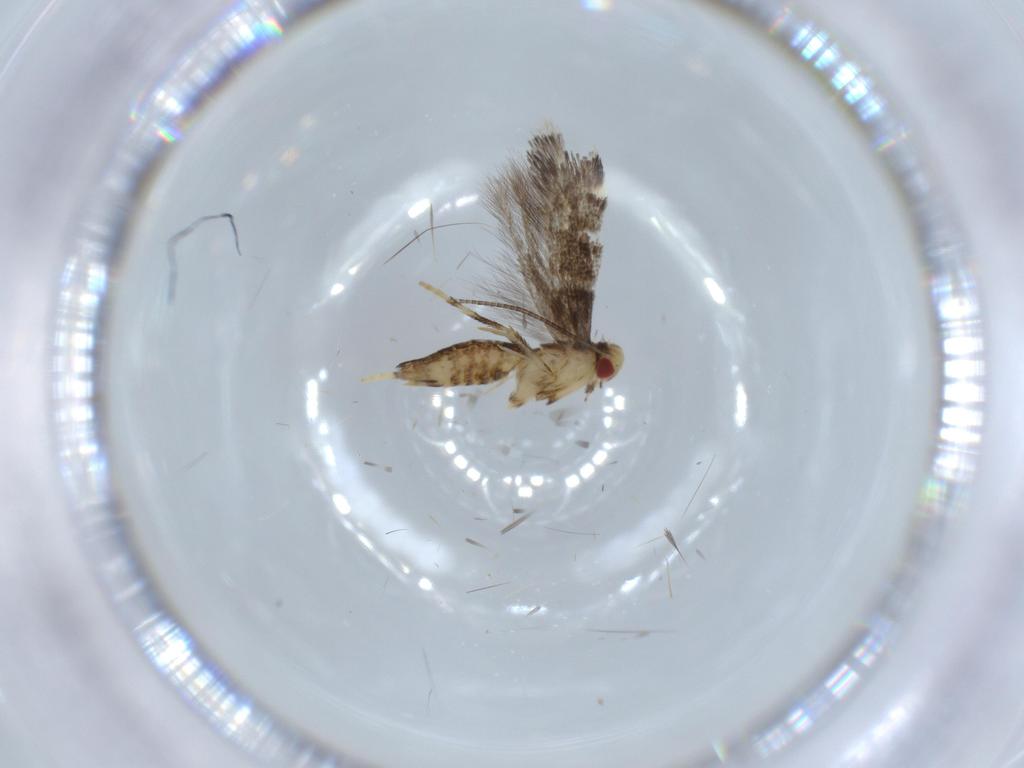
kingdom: Animalia
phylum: Arthropoda
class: Insecta
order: Lepidoptera
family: Gracillariidae
